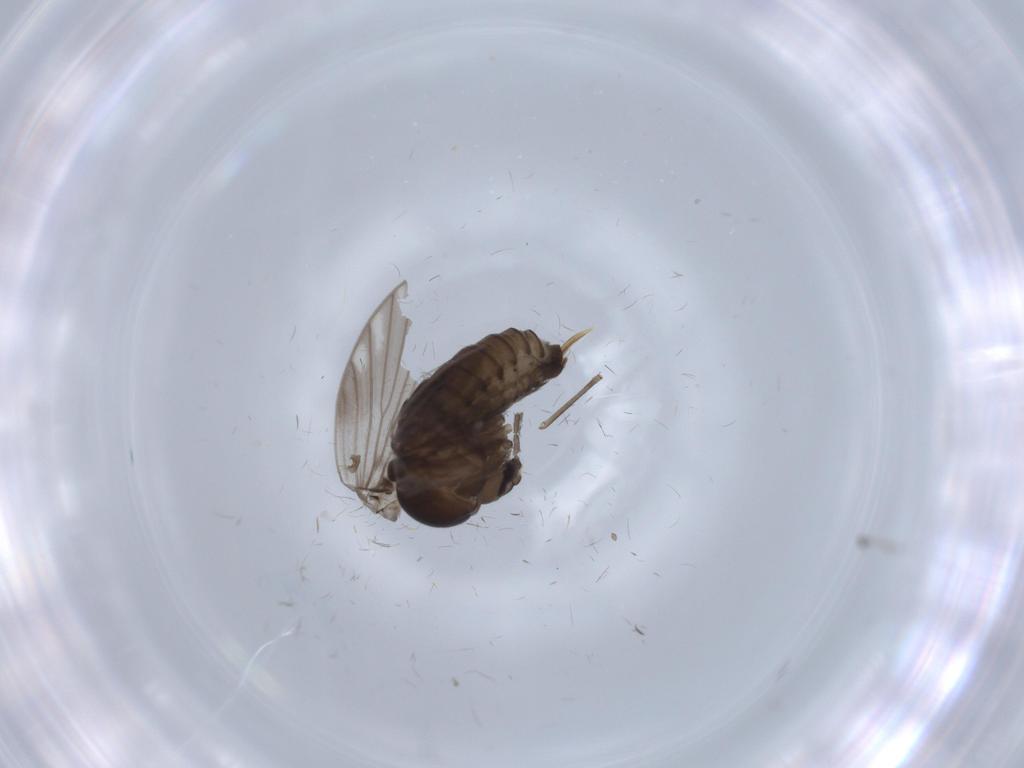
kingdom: Animalia
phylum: Arthropoda
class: Insecta
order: Diptera
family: Psychodidae
